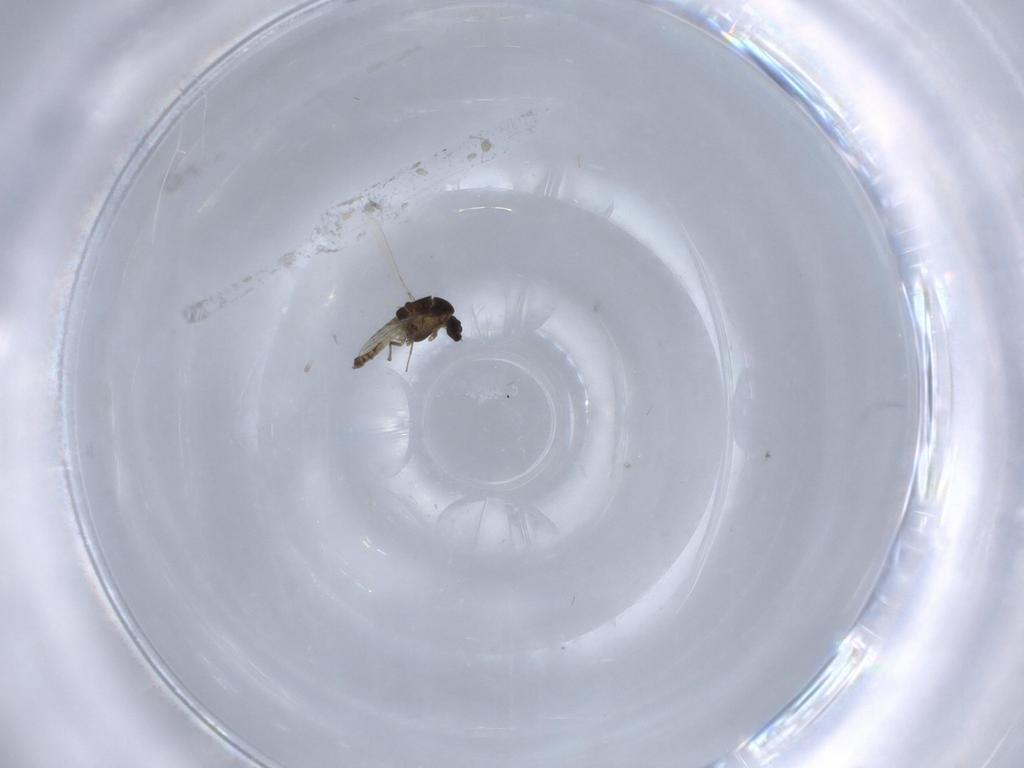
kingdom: Animalia
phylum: Arthropoda
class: Insecta
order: Diptera
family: Chironomidae
